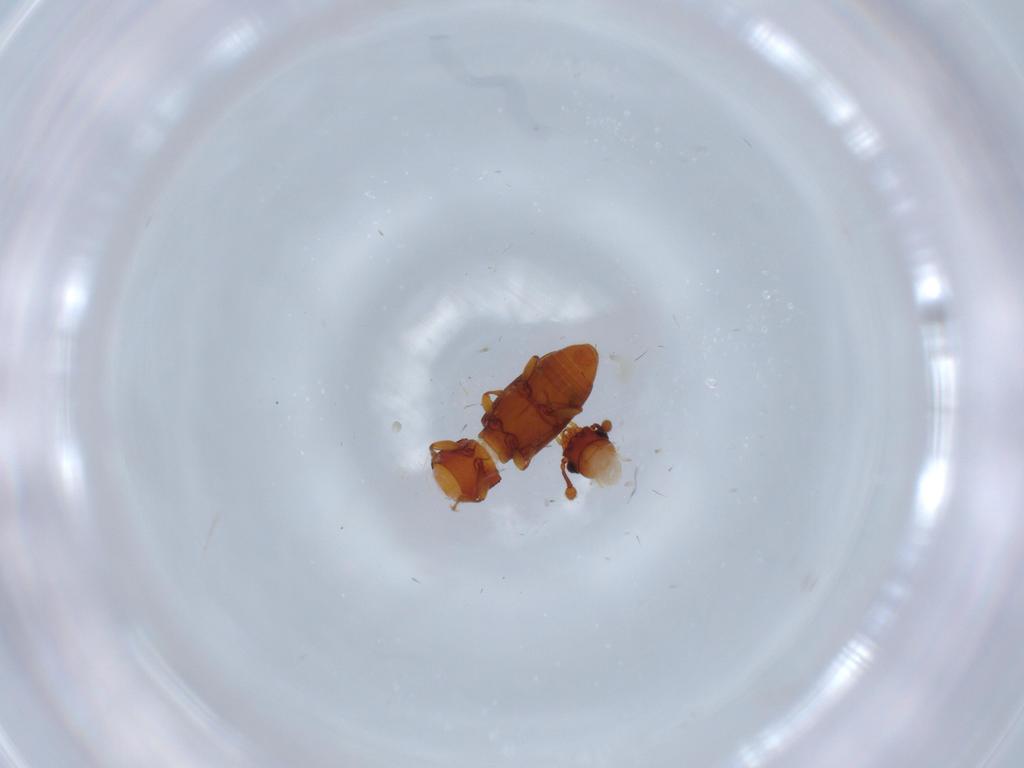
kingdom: Animalia
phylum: Arthropoda
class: Insecta
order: Coleoptera
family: Monotomidae
